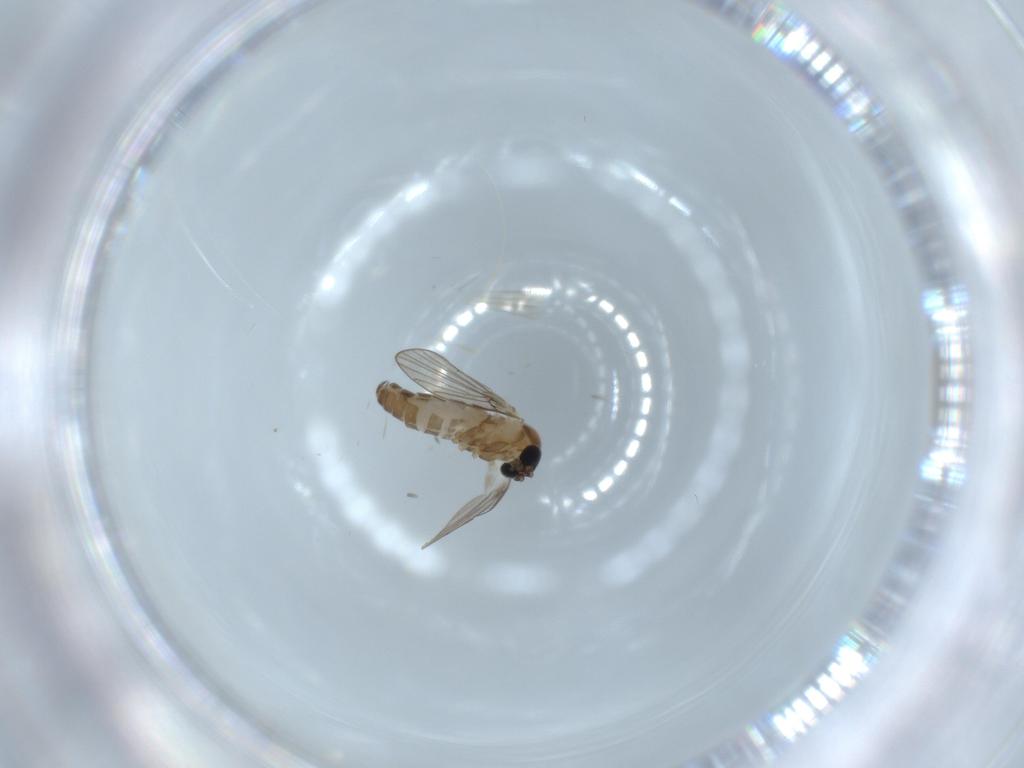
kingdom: Animalia
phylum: Arthropoda
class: Insecta
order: Diptera
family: Psychodidae
